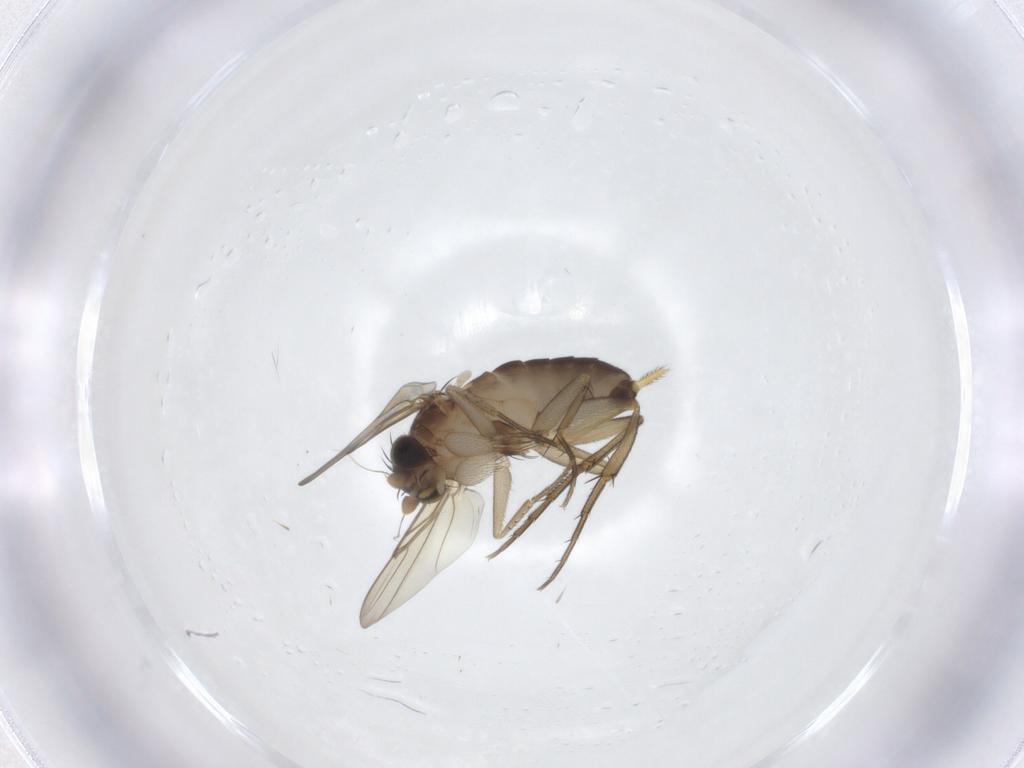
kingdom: Animalia
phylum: Arthropoda
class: Insecta
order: Diptera
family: Phoridae
